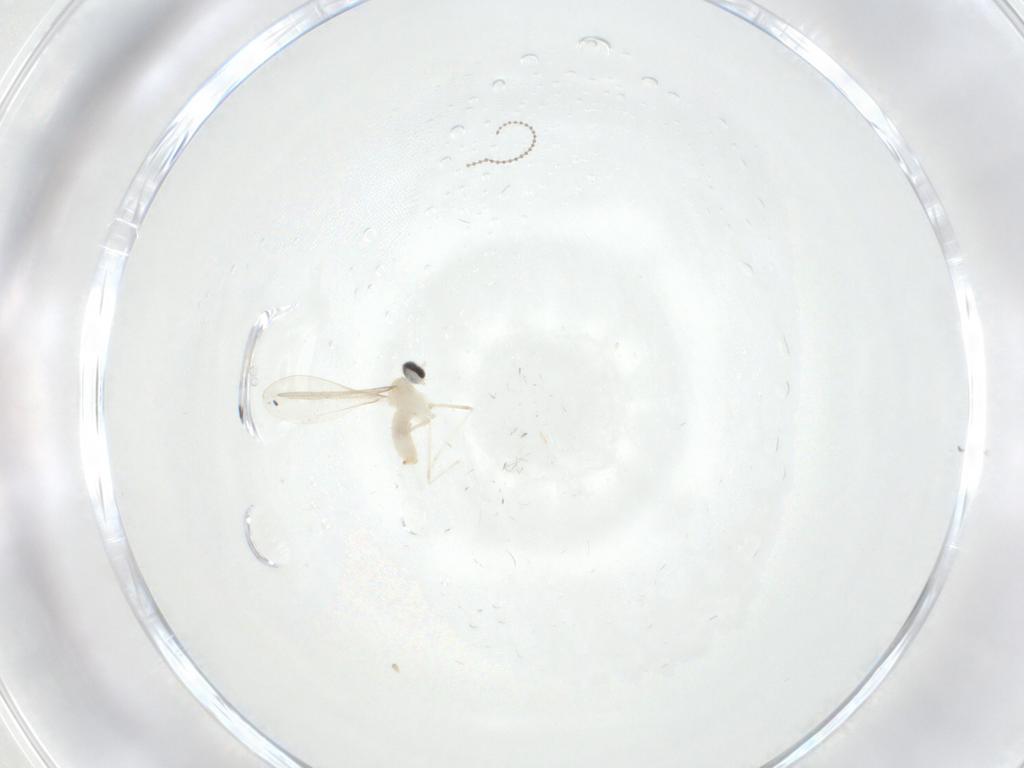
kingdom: Animalia
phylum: Arthropoda
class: Insecta
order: Diptera
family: Cecidomyiidae
